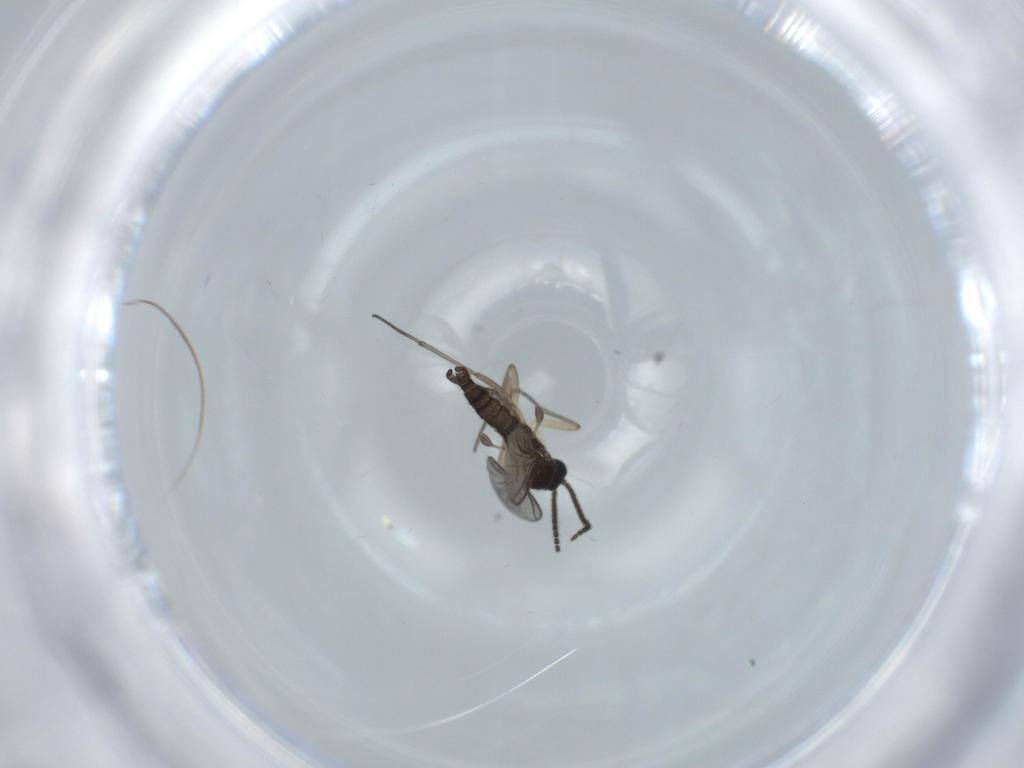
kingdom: Animalia
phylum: Arthropoda
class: Insecta
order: Diptera
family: Sciaridae
